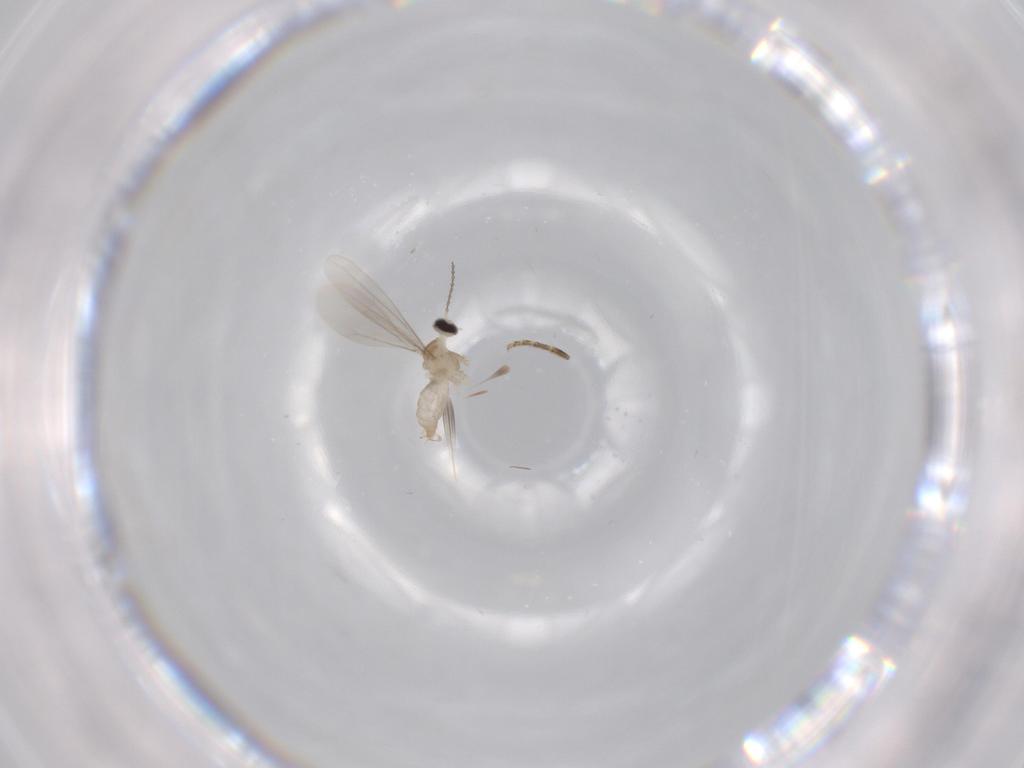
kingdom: Animalia
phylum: Arthropoda
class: Insecta
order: Diptera
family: Cecidomyiidae
